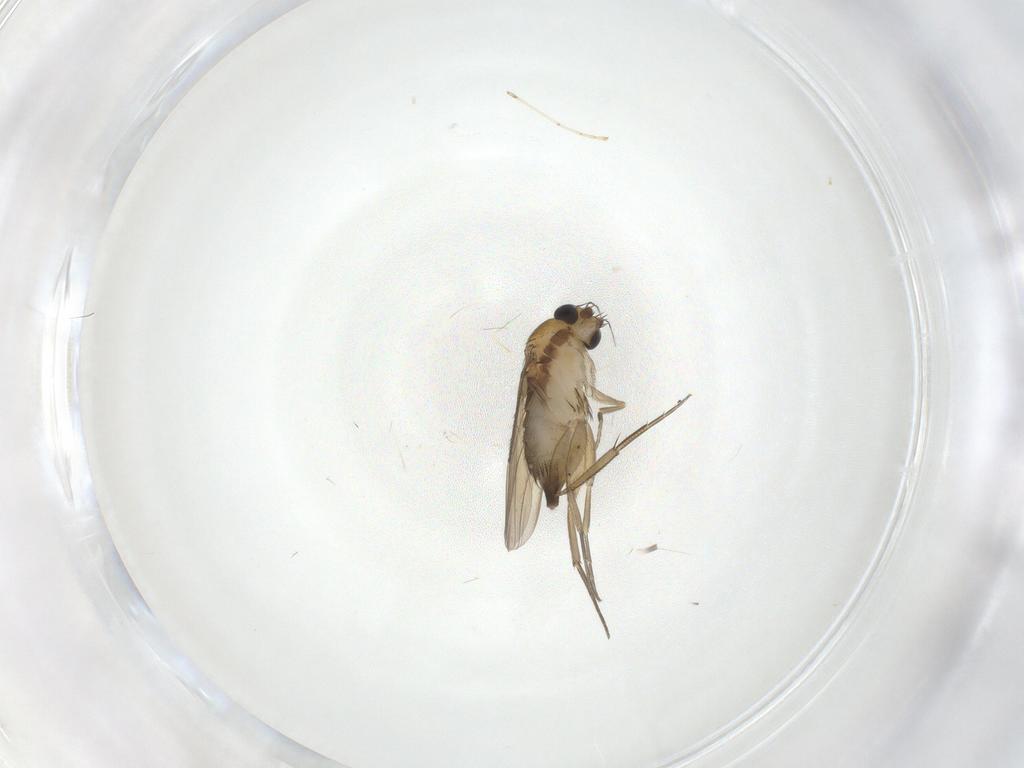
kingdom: Animalia
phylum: Arthropoda
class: Insecta
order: Diptera
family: Phoridae
